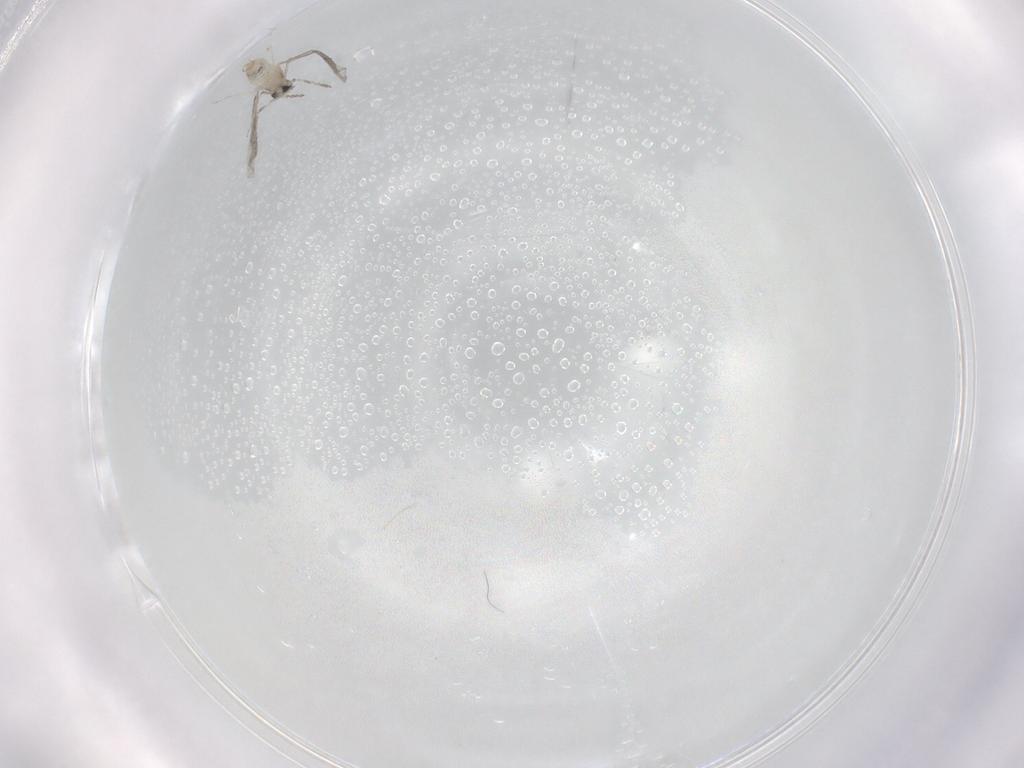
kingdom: Animalia
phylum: Arthropoda
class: Insecta
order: Diptera
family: Cecidomyiidae
